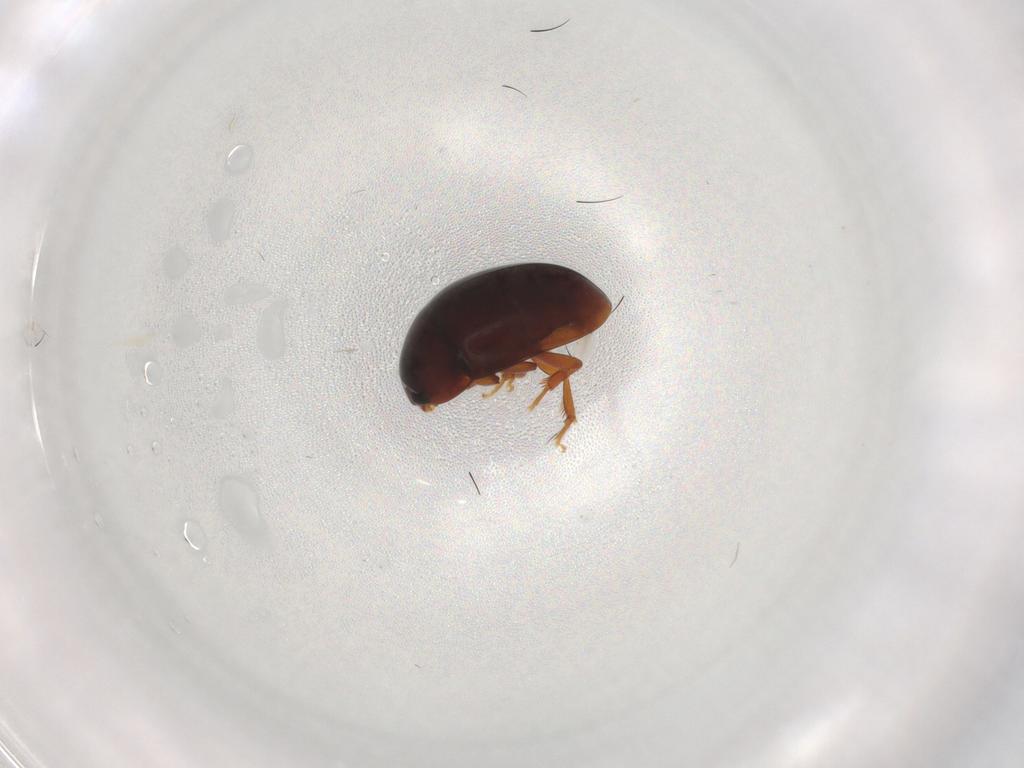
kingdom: Animalia
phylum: Arthropoda
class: Insecta
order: Coleoptera
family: Phalacridae
